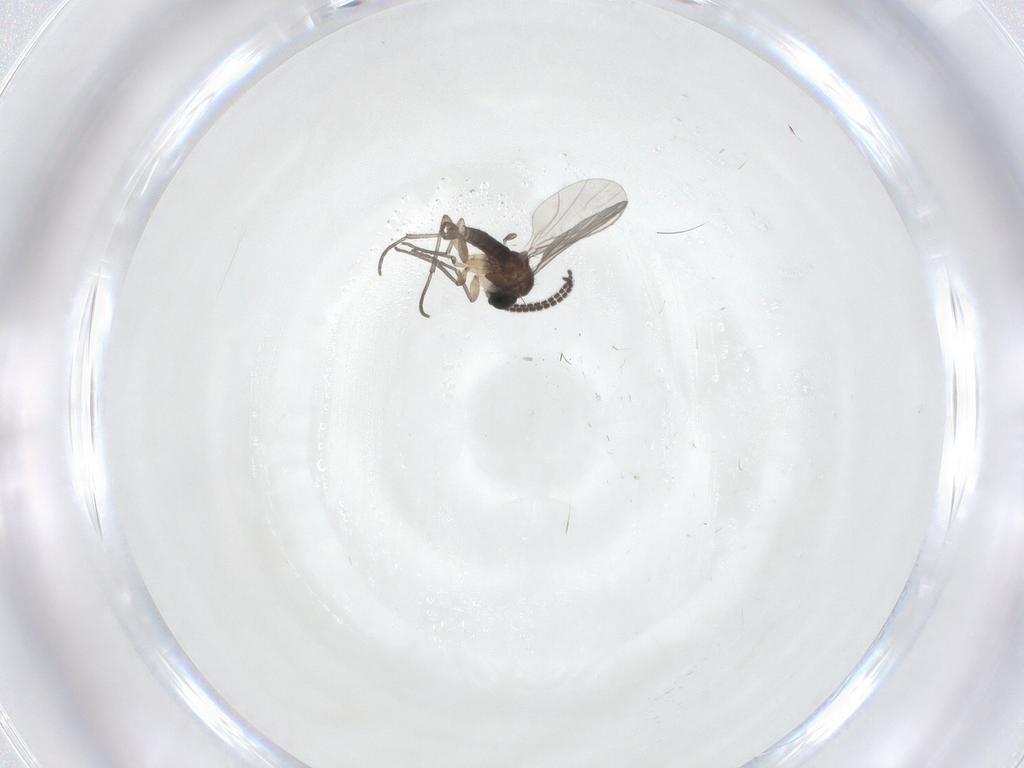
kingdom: Animalia
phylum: Arthropoda
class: Insecta
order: Diptera
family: Sciaridae
